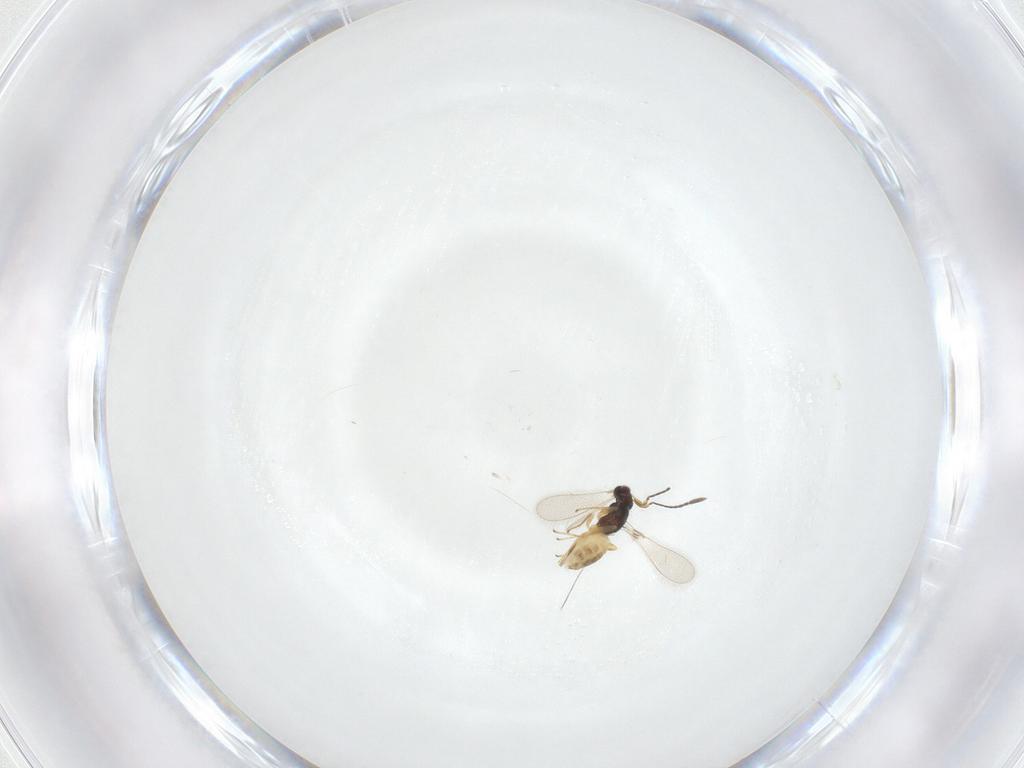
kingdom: Animalia
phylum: Arthropoda
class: Insecta
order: Hymenoptera
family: Mymaridae
